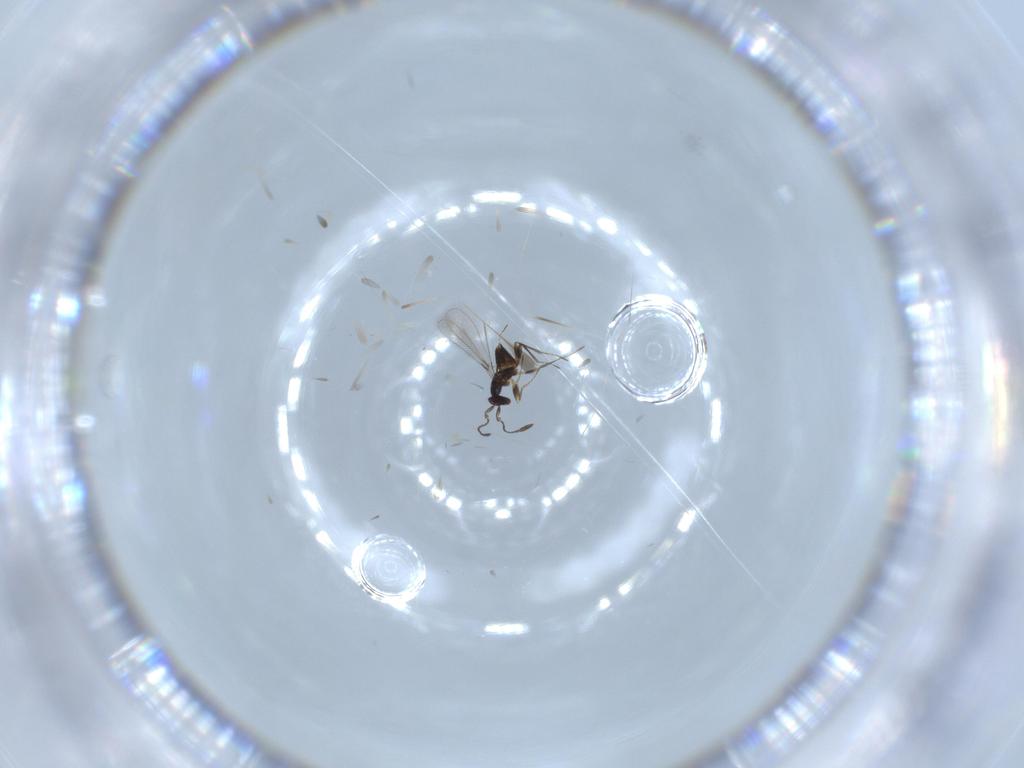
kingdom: Animalia
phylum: Arthropoda
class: Insecta
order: Hymenoptera
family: Mymaridae
